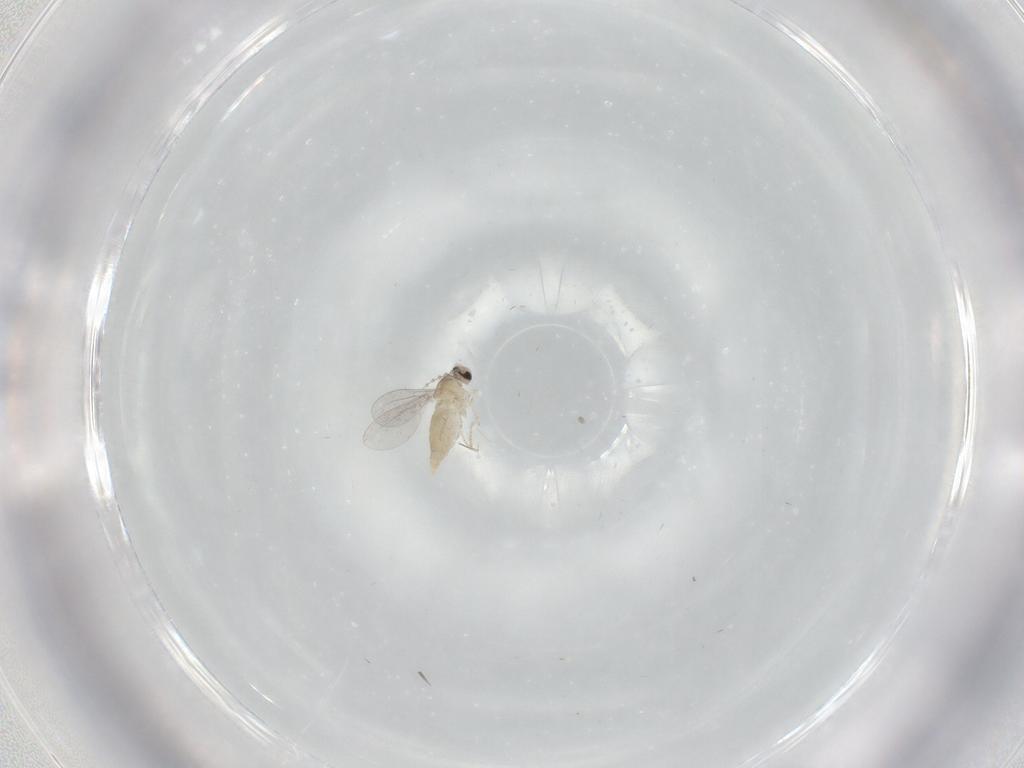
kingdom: Animalia
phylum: Arthropoda
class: Insecta
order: Diptera
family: Cecidomyiidae
